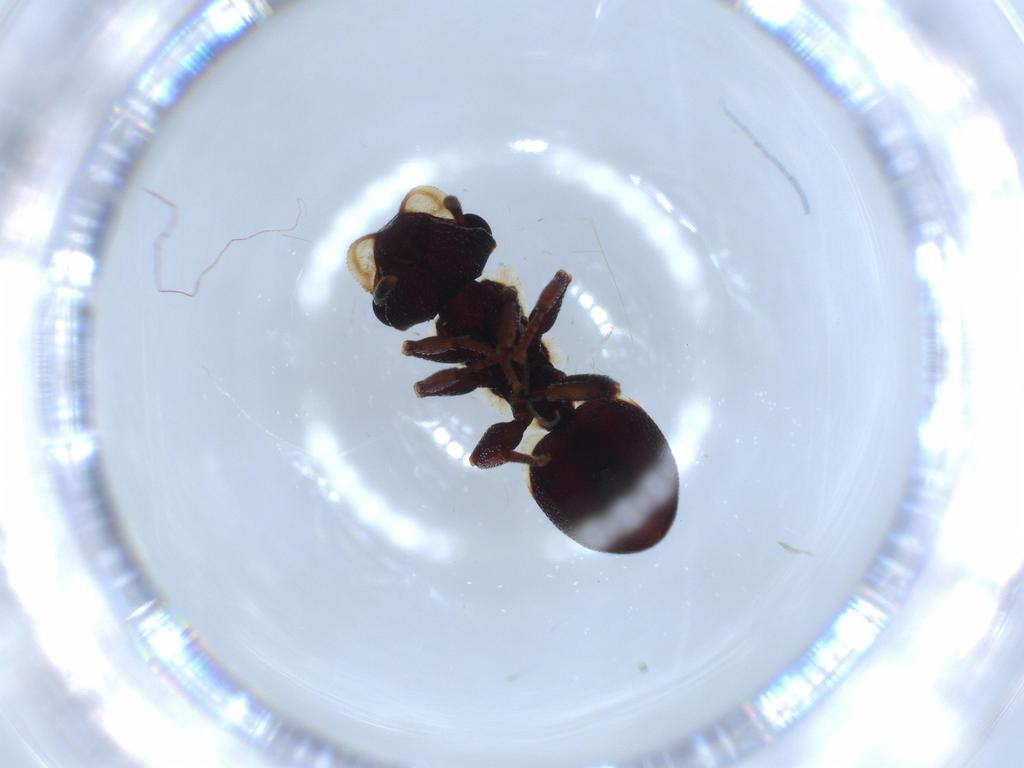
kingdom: Animalia
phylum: Arthropoda
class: Insecta
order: Hymenoptera
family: Formicidae
